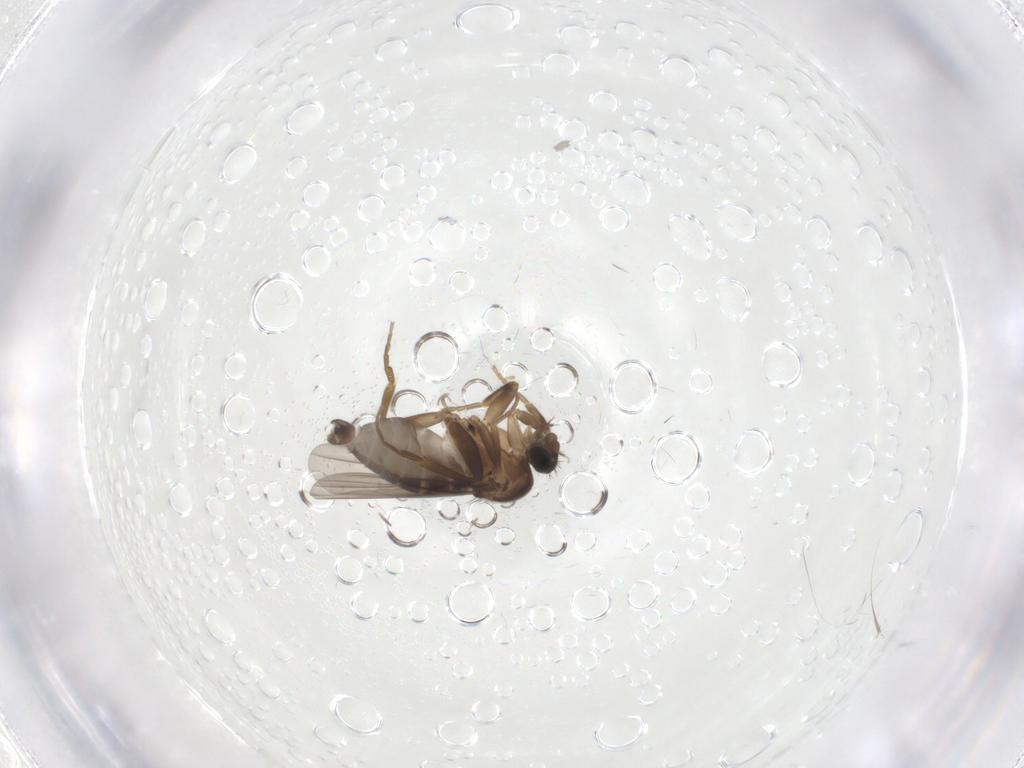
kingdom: Animalia
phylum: Arthropoda
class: Insecta
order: Diptera
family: Phoridae
